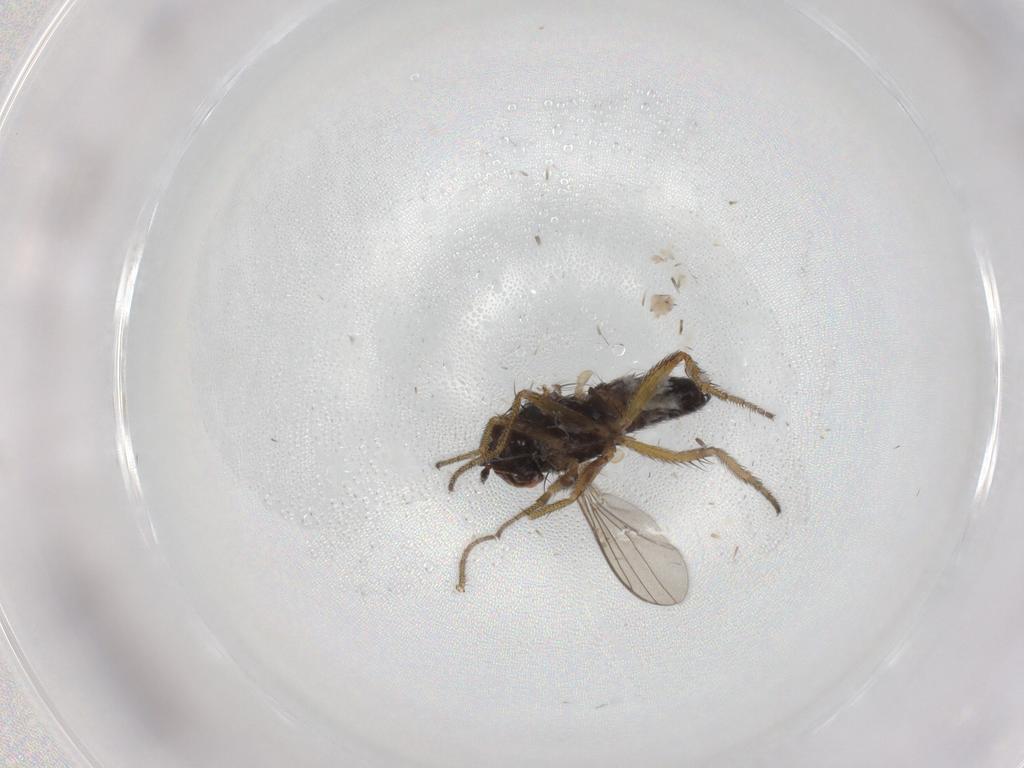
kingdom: Animalia
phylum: Arthropoda
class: Insecta
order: Diptera
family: Dolichopodidae
